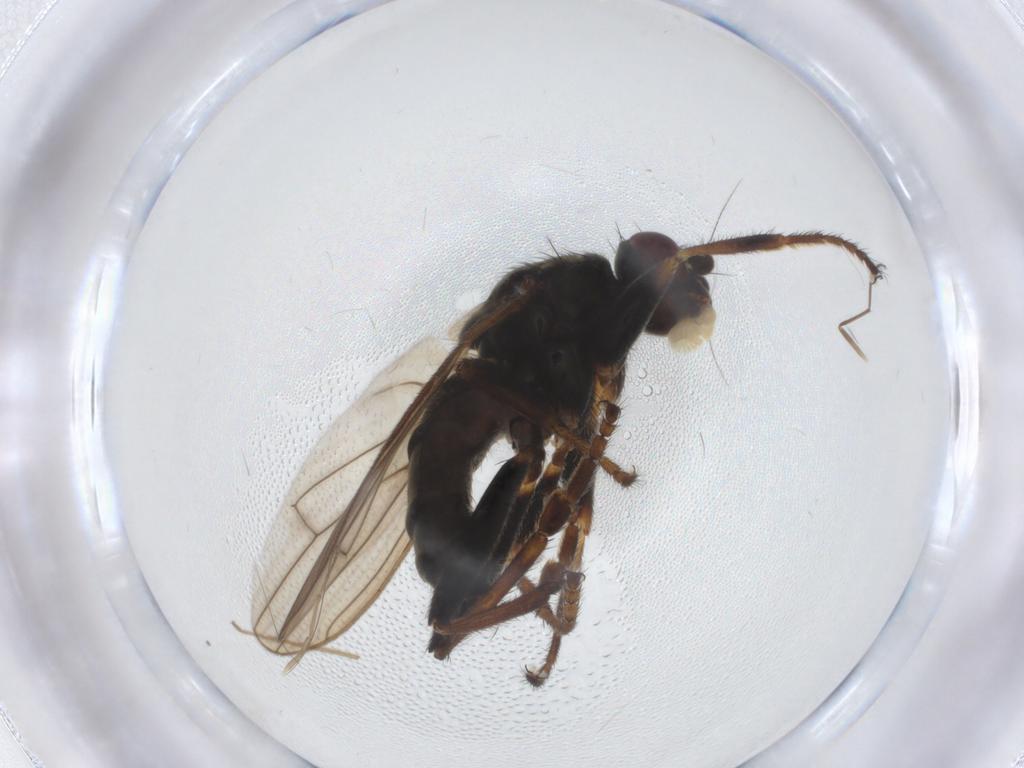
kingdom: Animalia
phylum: Arthropoda
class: Insecta
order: Diptera
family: Sphaeroceridae
